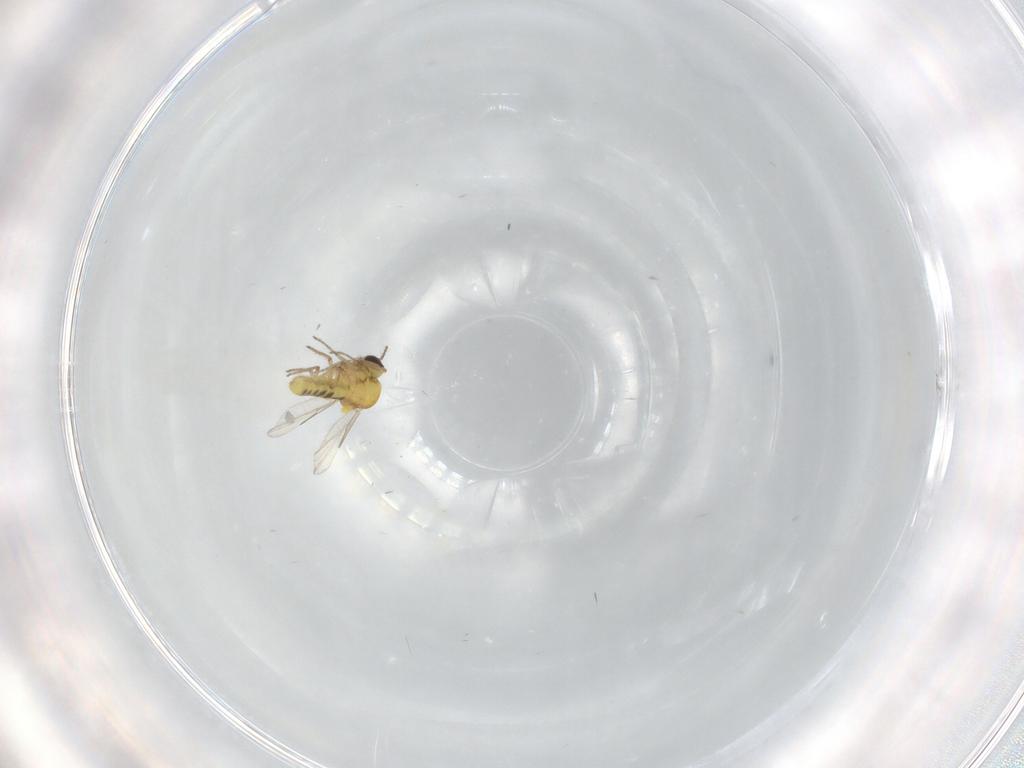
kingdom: Animalia
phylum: Arthropoda
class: Insecta
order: Diptera
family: Ceratopogonidae
